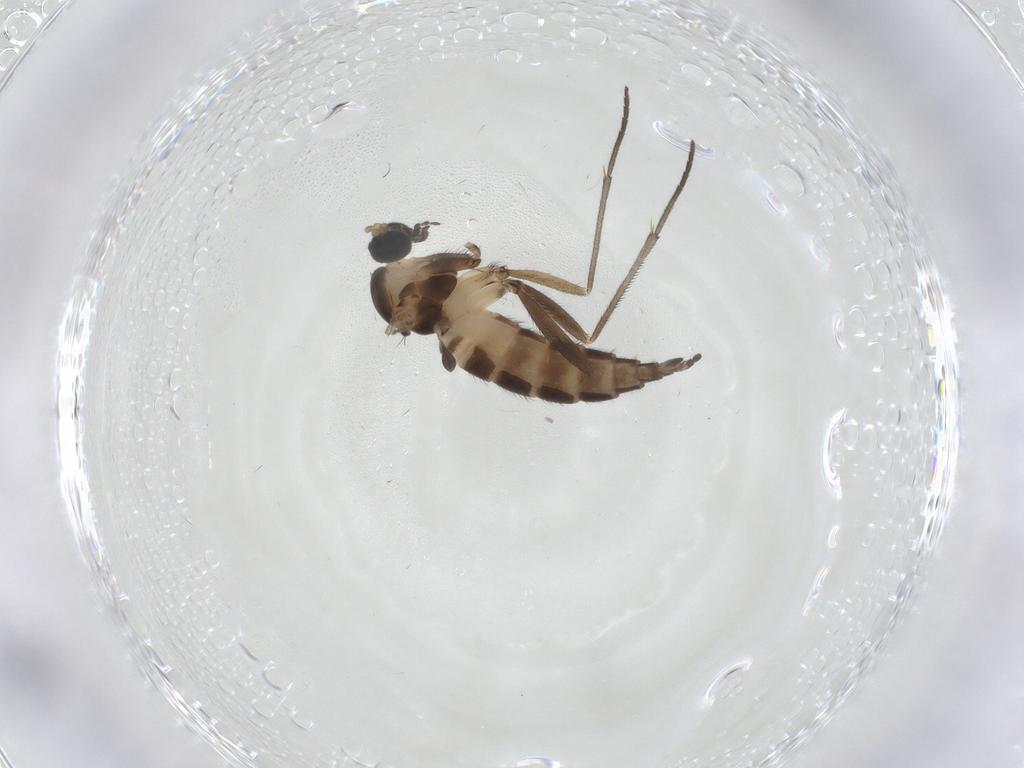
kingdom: Animalia
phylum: Arthropoda
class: Insecta
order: Diptera
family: Sciaridae
